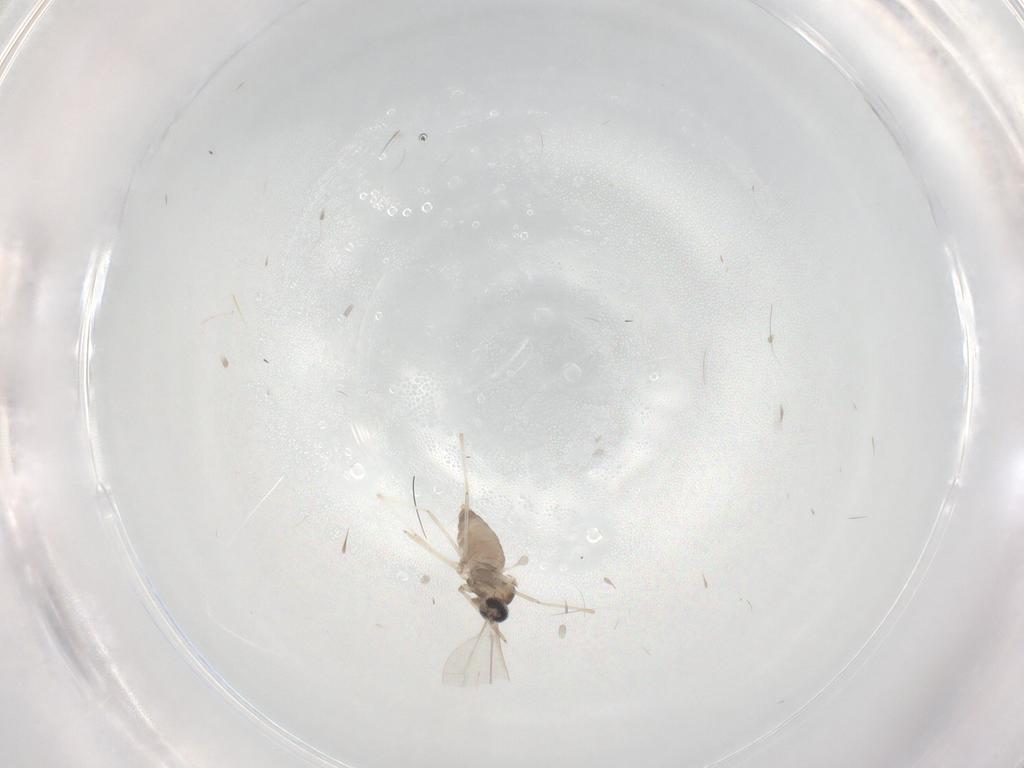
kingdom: Animalia
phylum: Arthropoda
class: Insecta
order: Diptera
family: Cecidomyiidae
